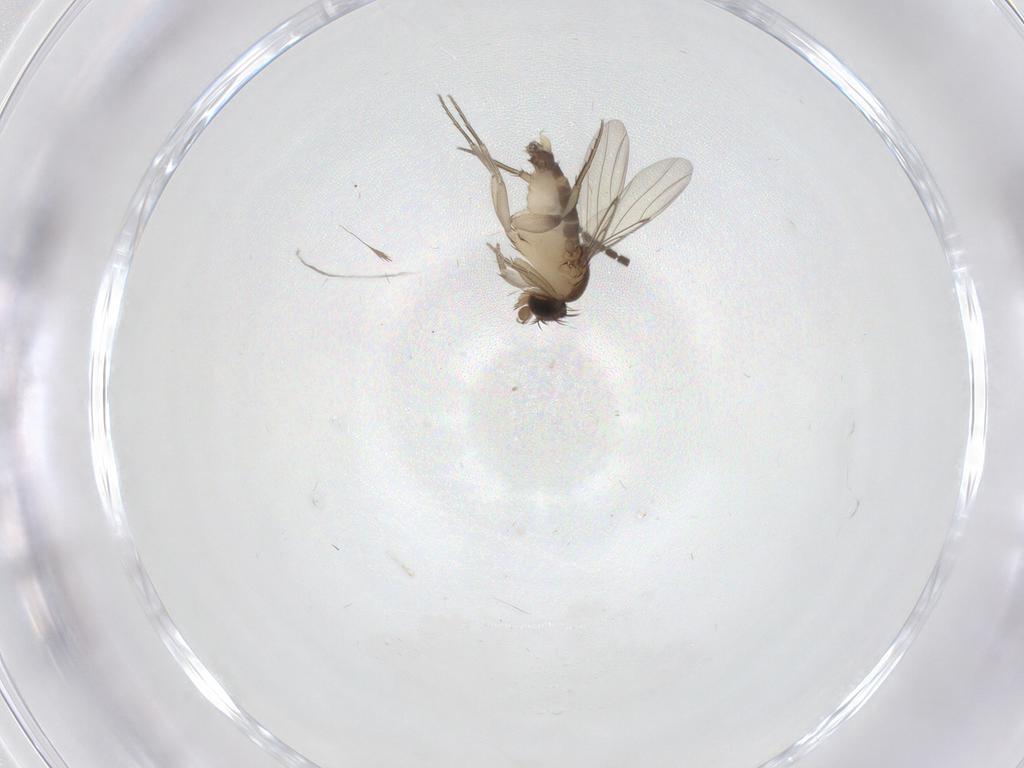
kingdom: Animalia
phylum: Arthropoda
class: Insecta
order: Diptera
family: Phoridae
